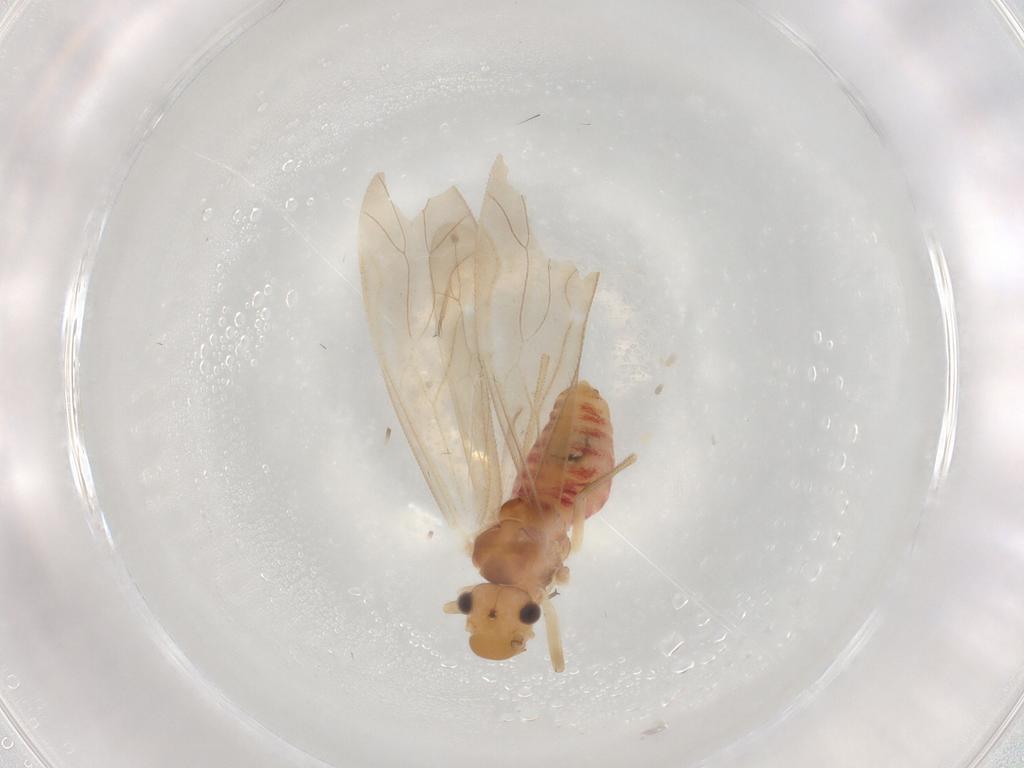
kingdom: Animalia
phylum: Arthropoda
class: Insecta
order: Psocodea
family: Caeciliusidae
